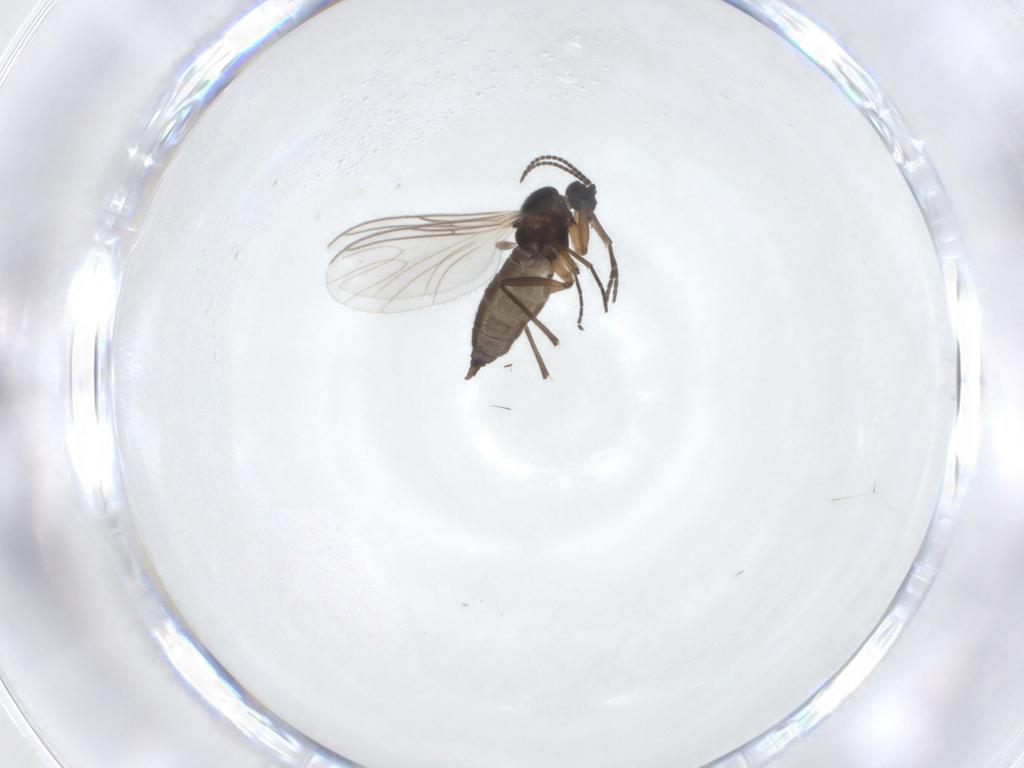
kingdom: Animalia
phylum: Arthropoda
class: Insecta
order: Diptera
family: Sciaridae
